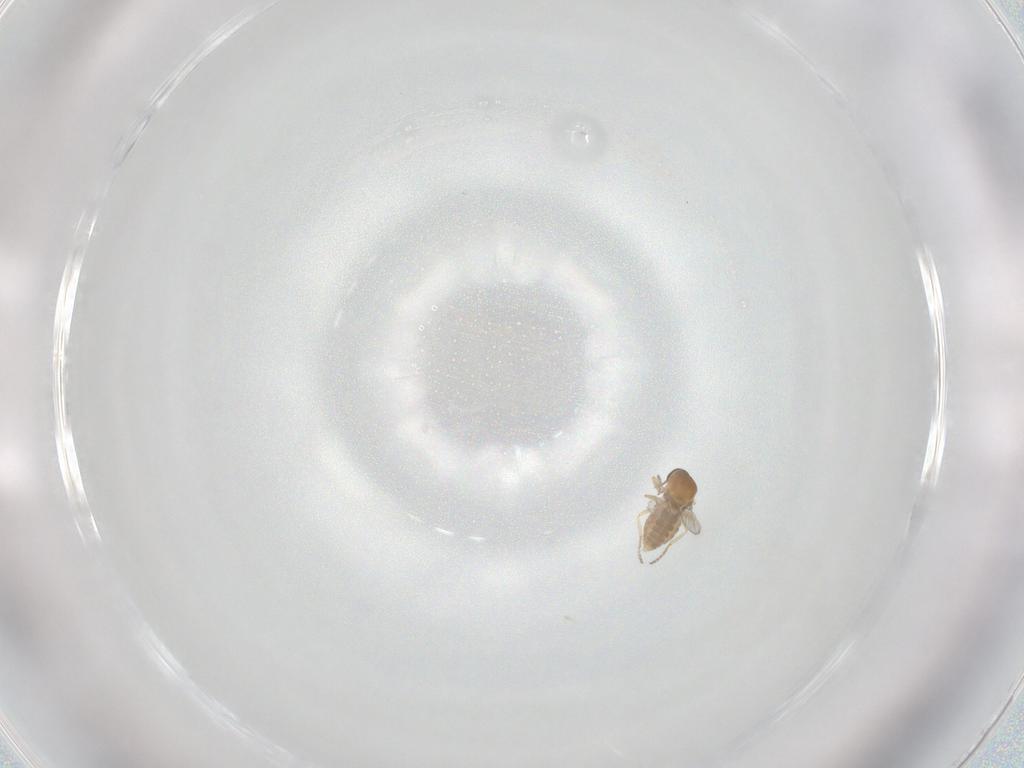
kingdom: Animalia
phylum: Arthropoda
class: Insecta
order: Diptera
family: Ceratopogonidae
